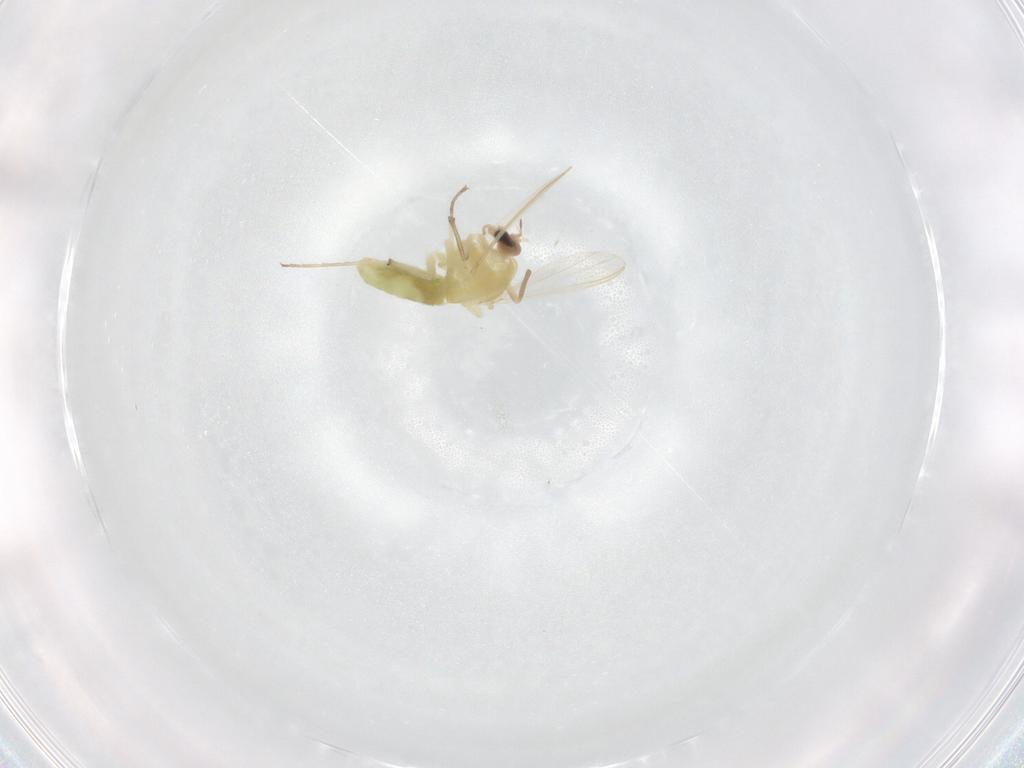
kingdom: Animalia
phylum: Arthropoda
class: Insecta
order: Diptera
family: Chironomidae
